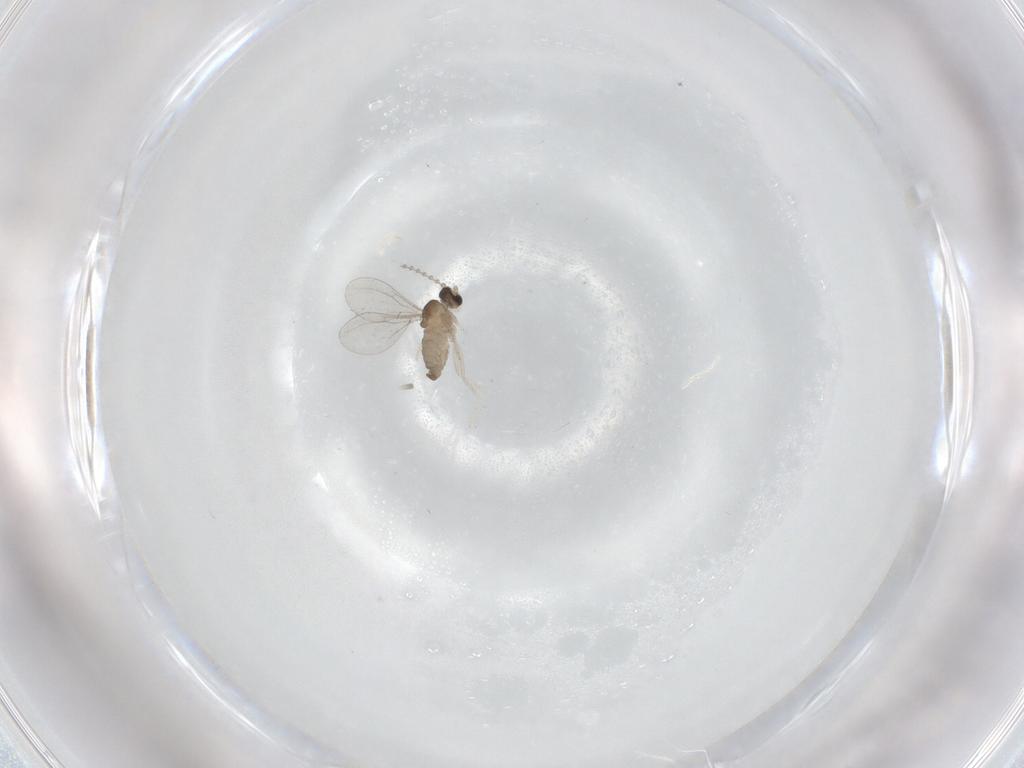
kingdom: Animalia
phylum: Arthropoda
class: Insecta
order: Diptera
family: Cecidomyiidae
